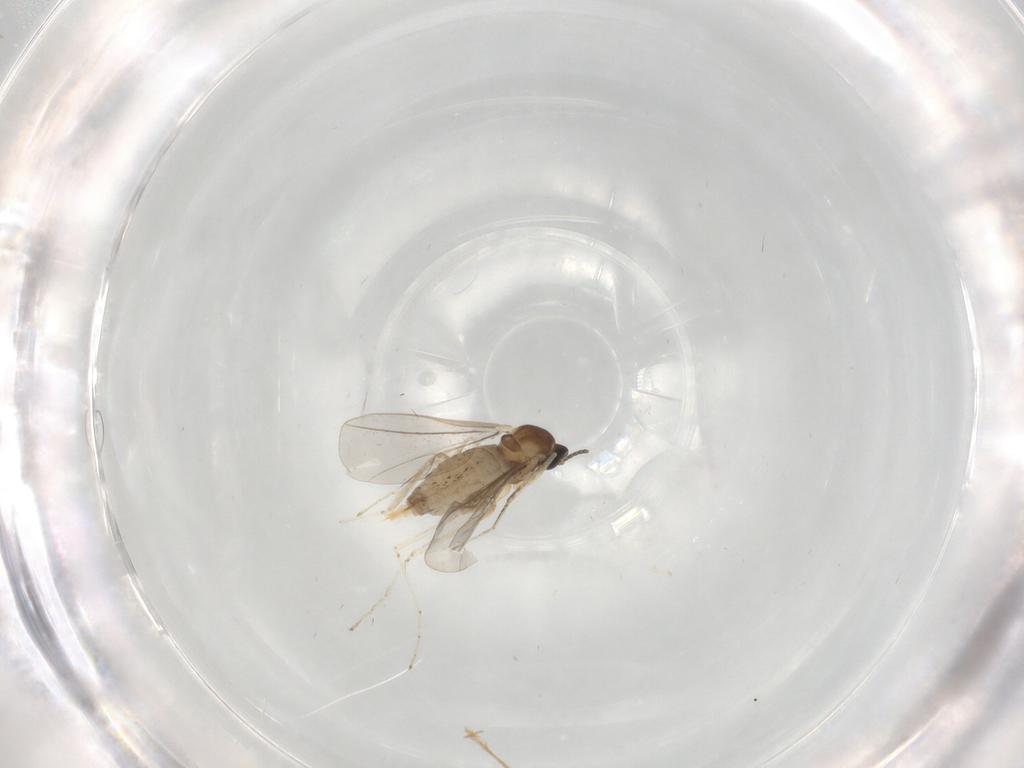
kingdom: Animalia
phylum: Arthropoda
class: Insecta
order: Diptera
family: Cecidomyiidae
